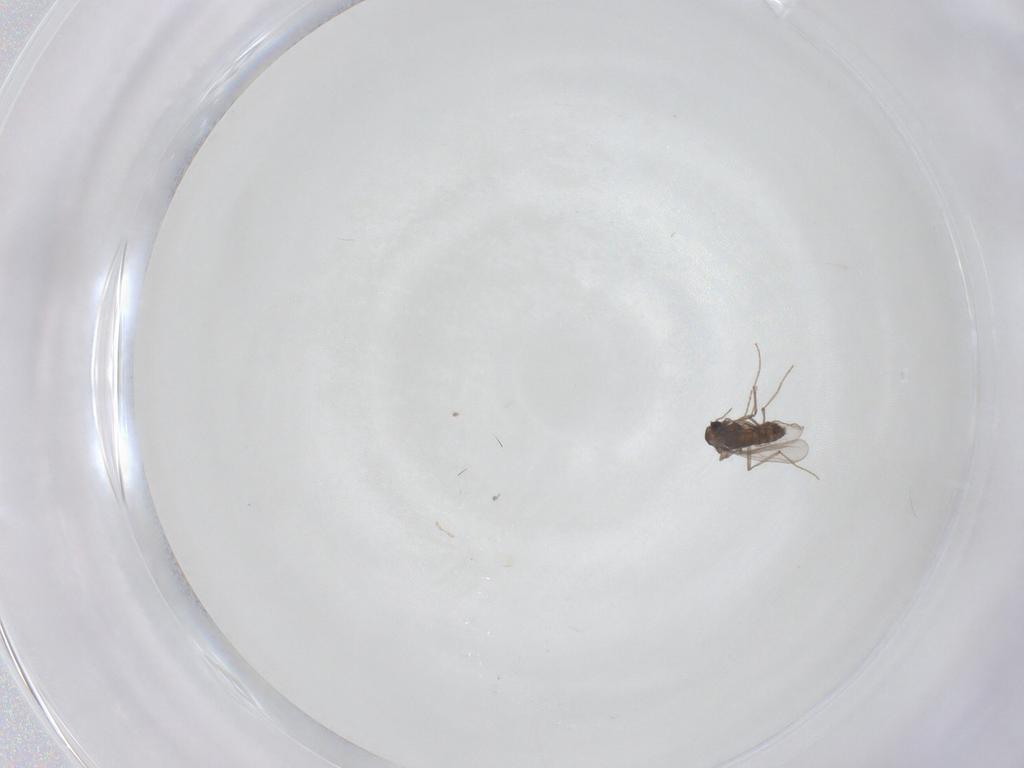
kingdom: Animalia
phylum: Arthropoda
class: Insecta
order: Diptera
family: Chironomidae
